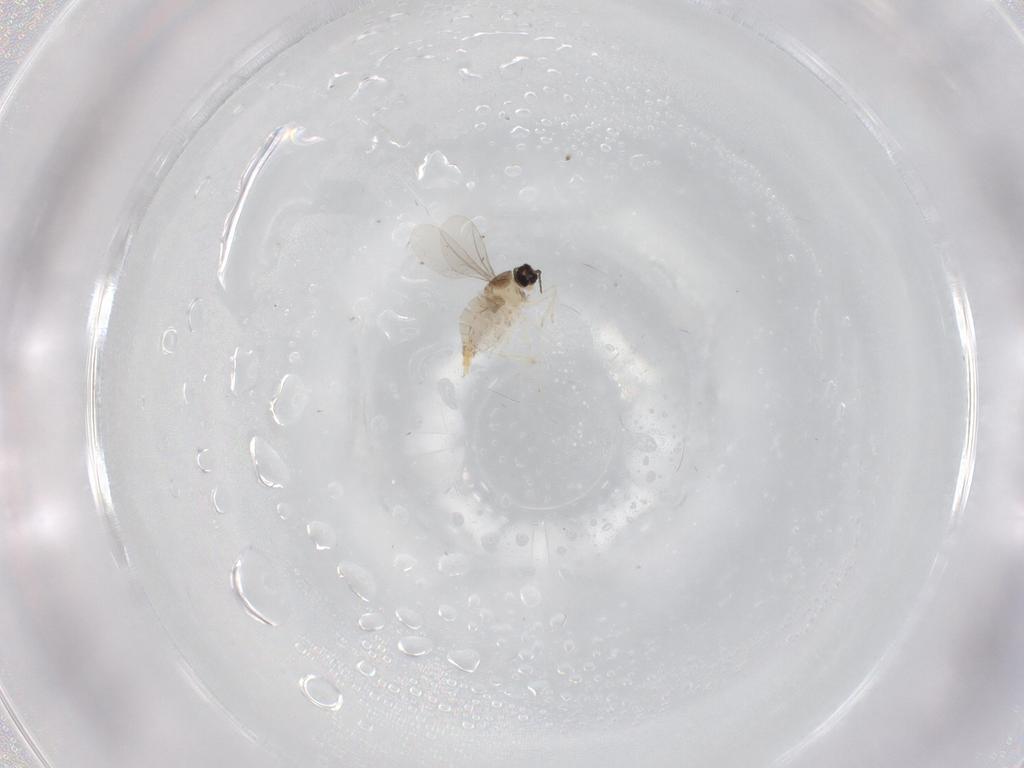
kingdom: Animalia
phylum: Arthropoda
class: Insecta
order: Diptera
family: Cecidomyiidae
